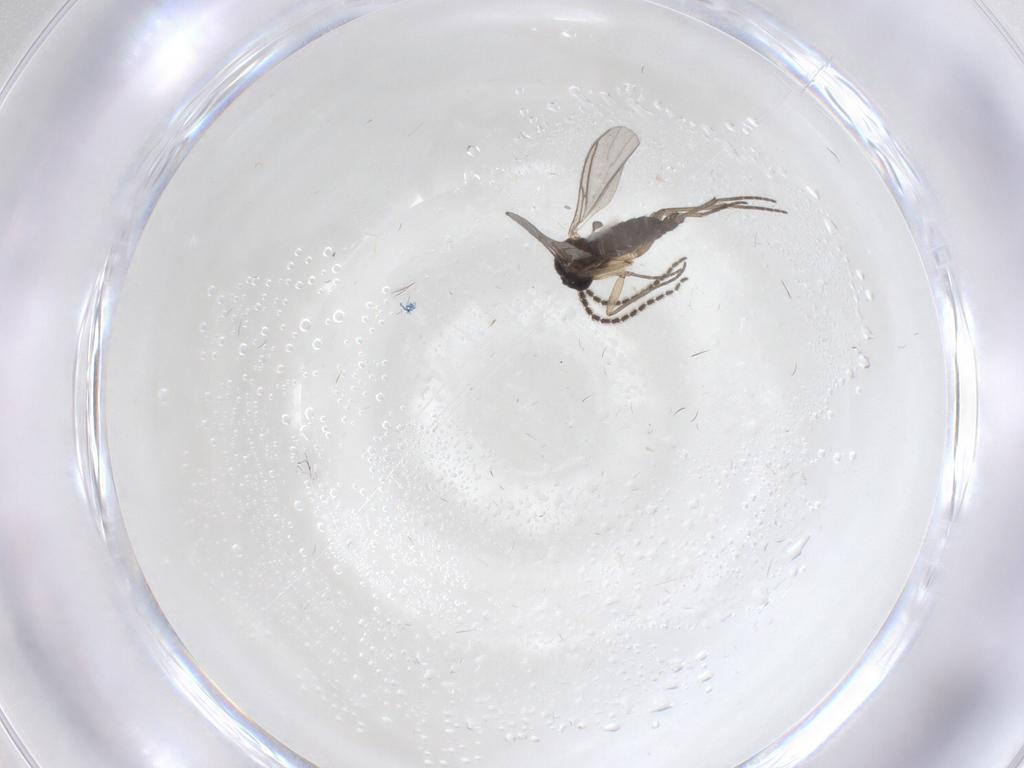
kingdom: Animalia
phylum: Arthropoda
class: Insecta
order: Diptera
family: Sciaridae
